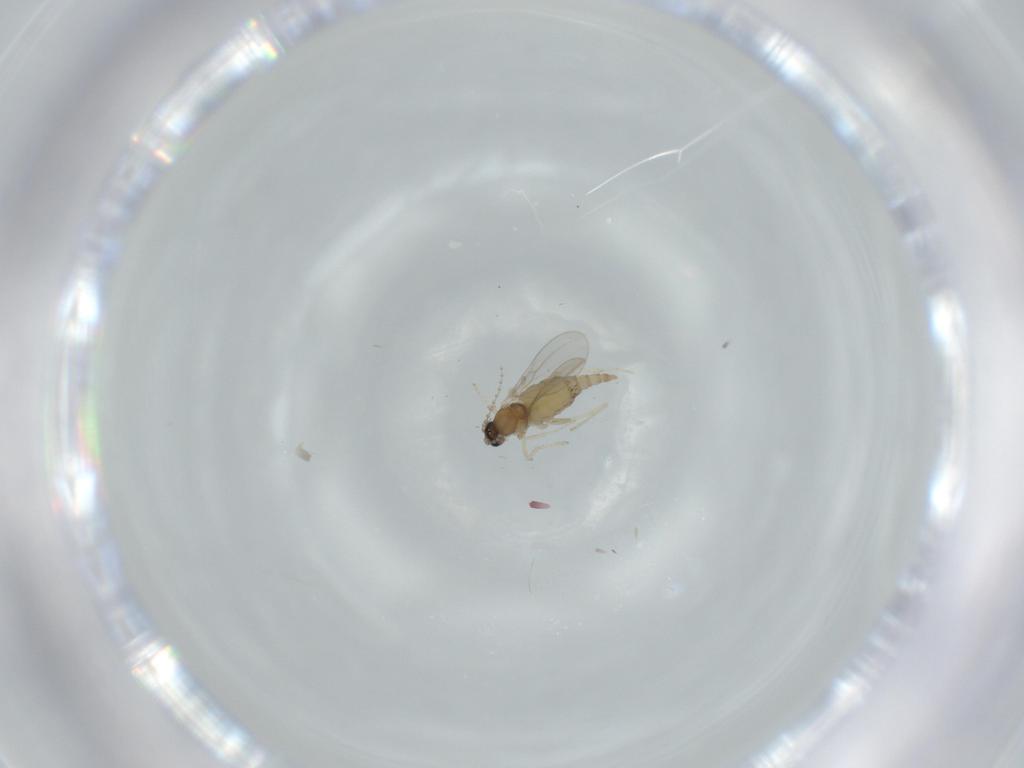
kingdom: Animalia
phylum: Arthropoda
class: Insecta
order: Diptera
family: Cecidomyiidae
